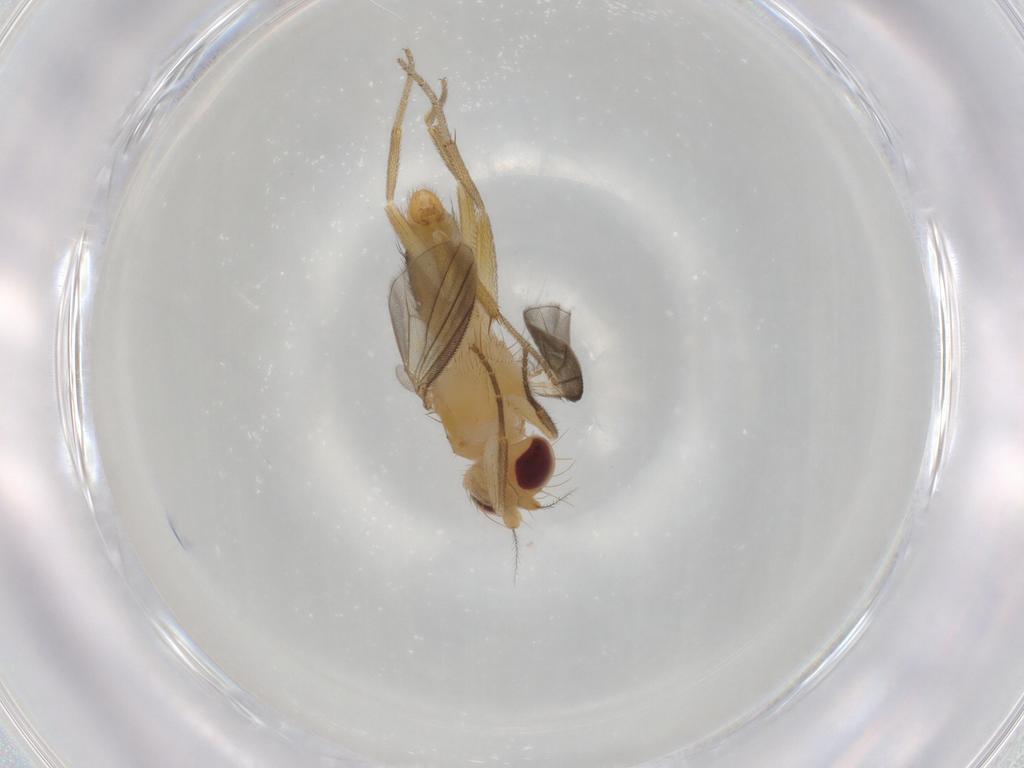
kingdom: Animalia
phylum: Arthropoda
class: Insecta
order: Diptera
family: Agromyzidae
